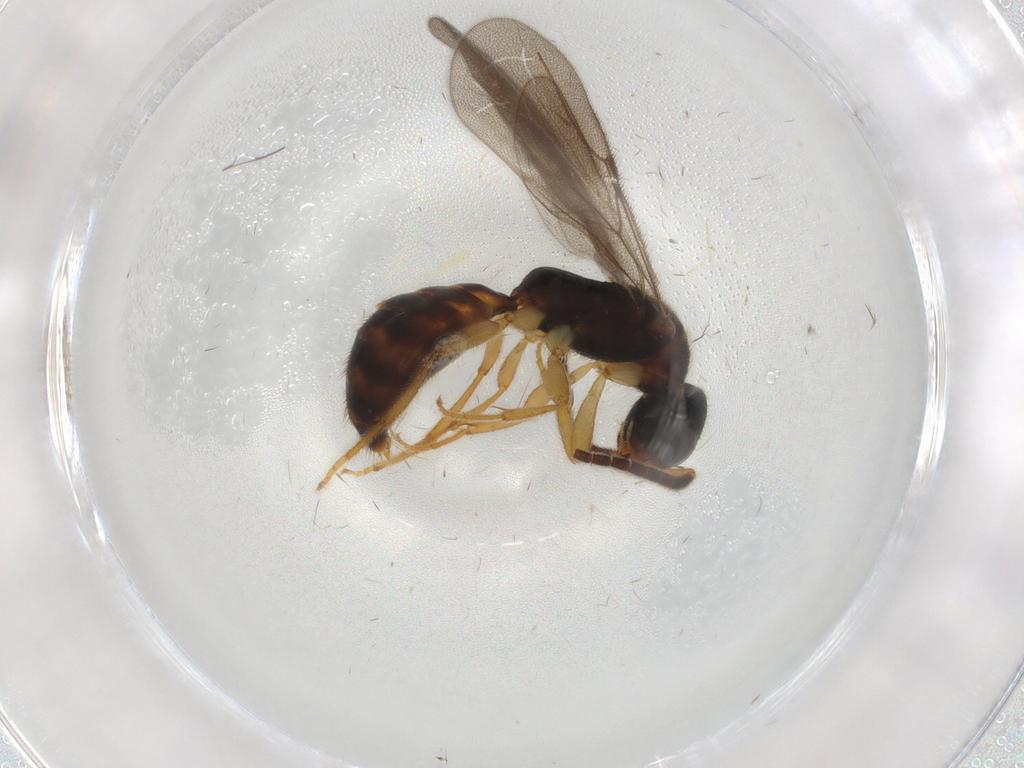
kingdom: Animalia
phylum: Arthropoda
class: Insecta
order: Hymenoptera
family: Bethylidae
